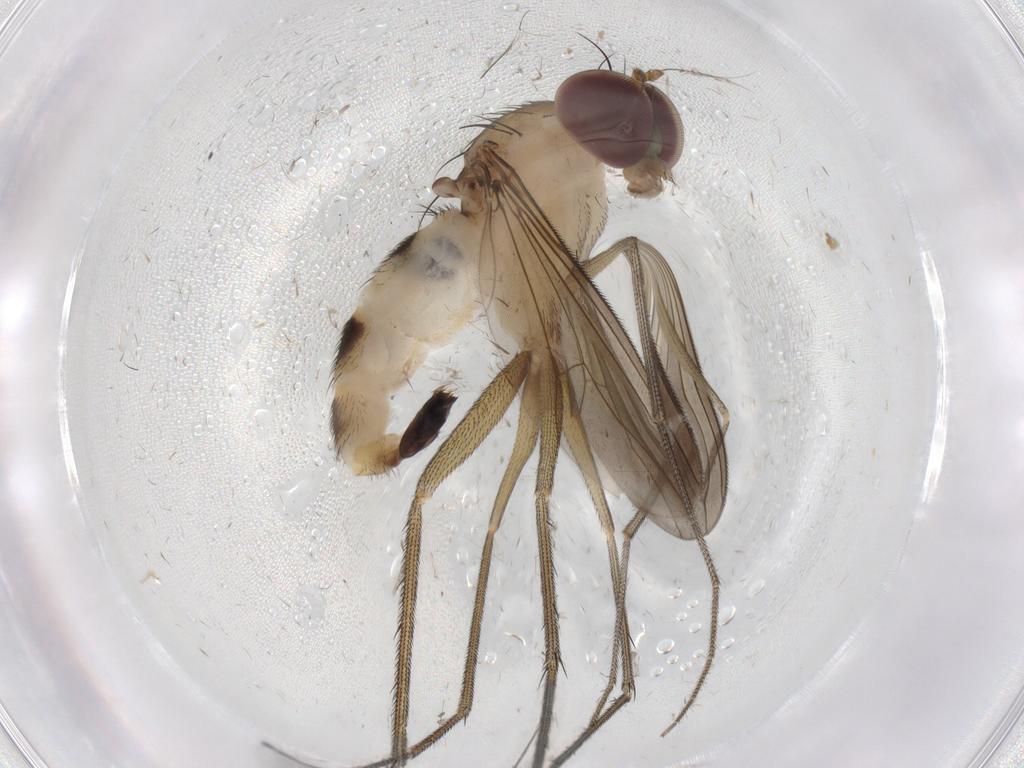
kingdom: Animalia
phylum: Arthropoda
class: Insecta
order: Diptera
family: Dolichopodidae
